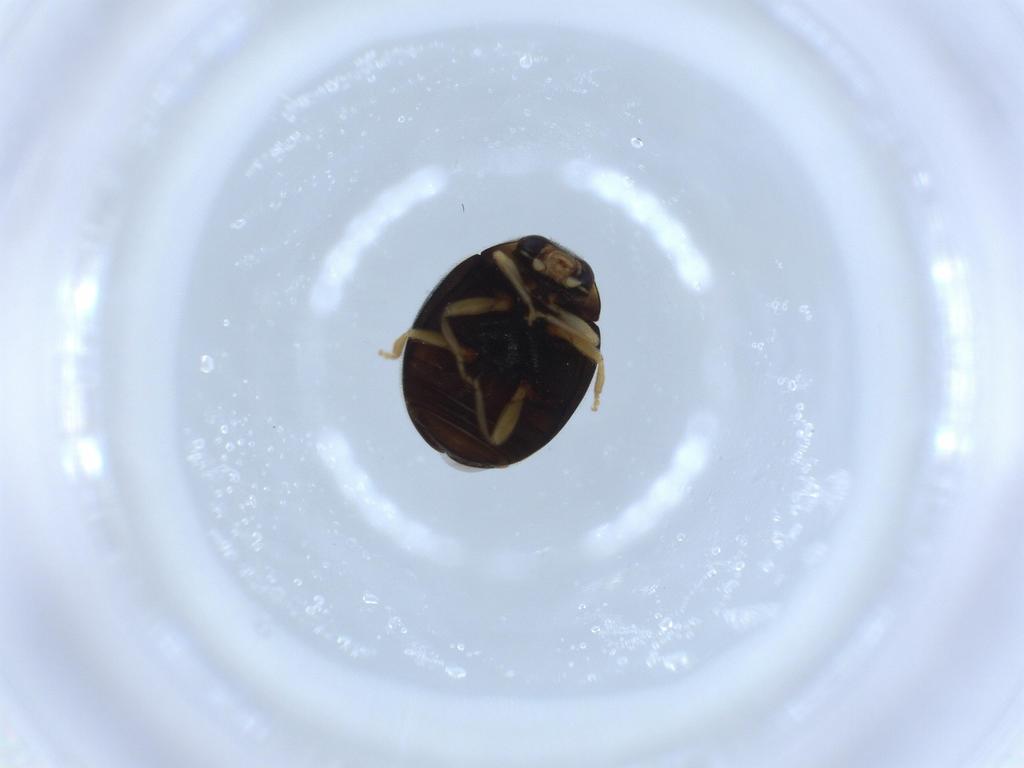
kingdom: Animalia
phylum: Arthropoda
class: Insecta
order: Coleoptera
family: Coccinellidae
